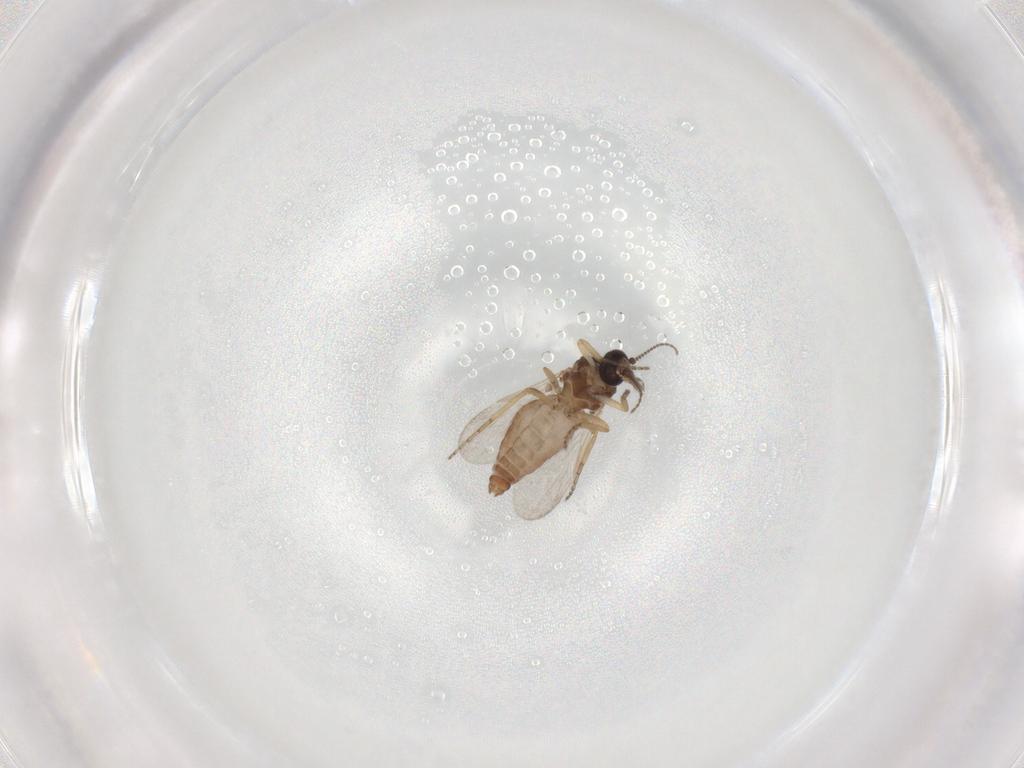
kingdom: Animalia
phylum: Arthropoda
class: Insecta
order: Diptera
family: Ceratopogonidae
